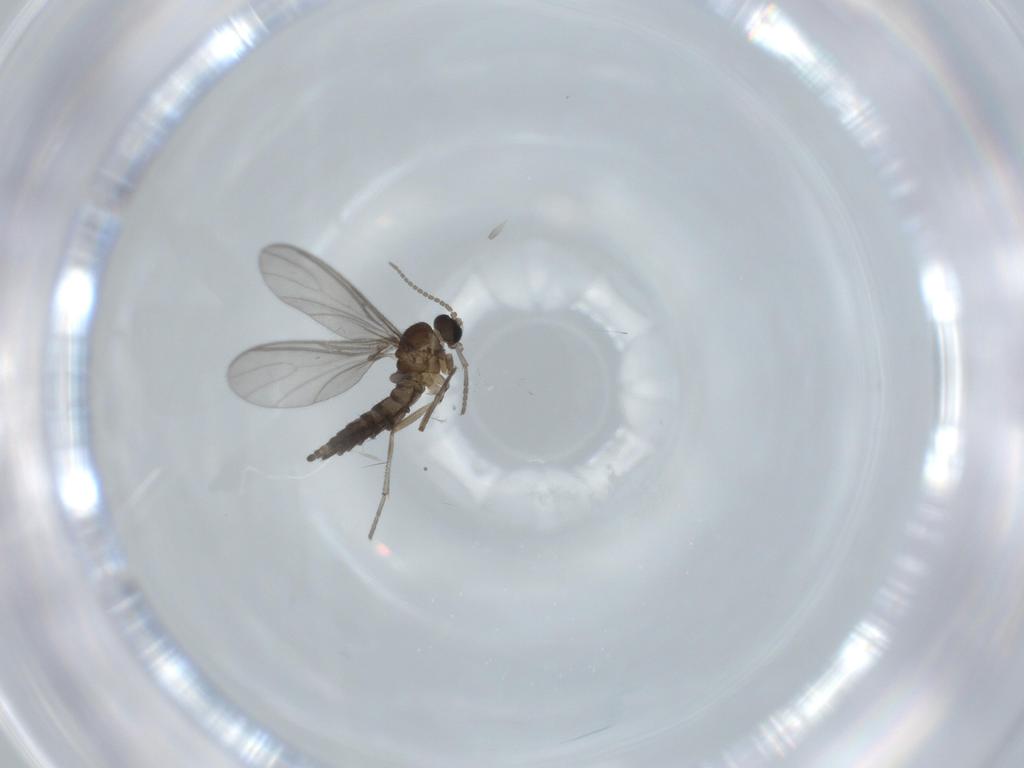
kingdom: Animalia
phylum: Arthropoda
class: Insecta
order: Diptera
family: Sciaridae
